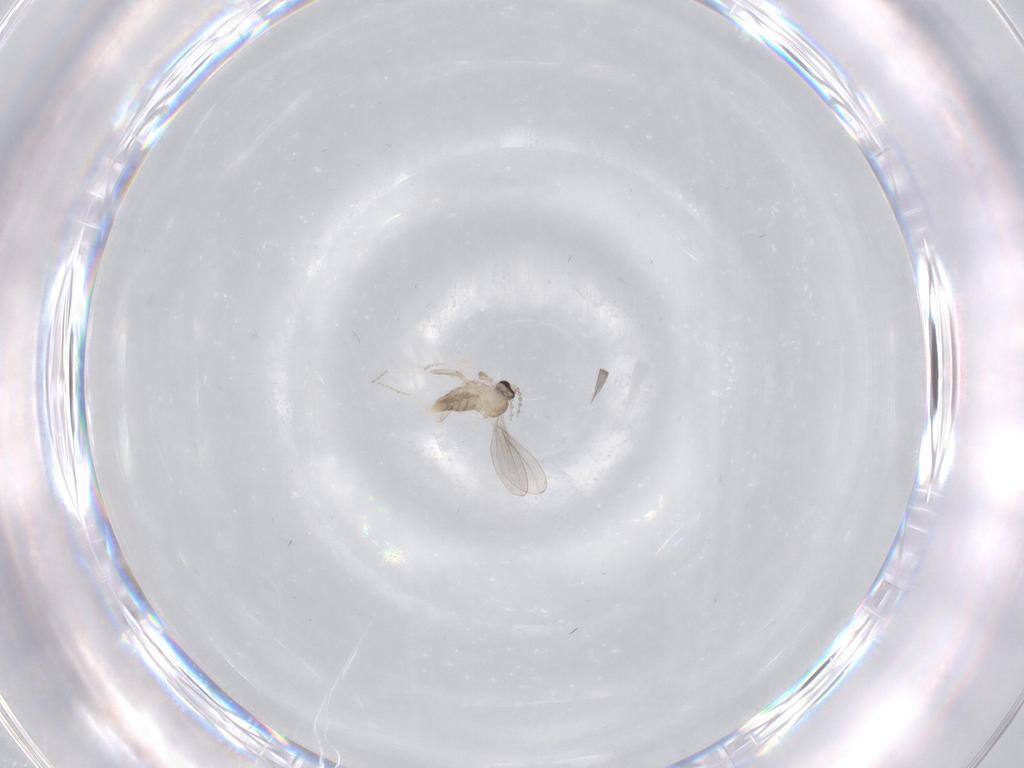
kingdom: Animalia
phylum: Arthropoda
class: Insecta
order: Diptera
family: Cecidomyiidae
